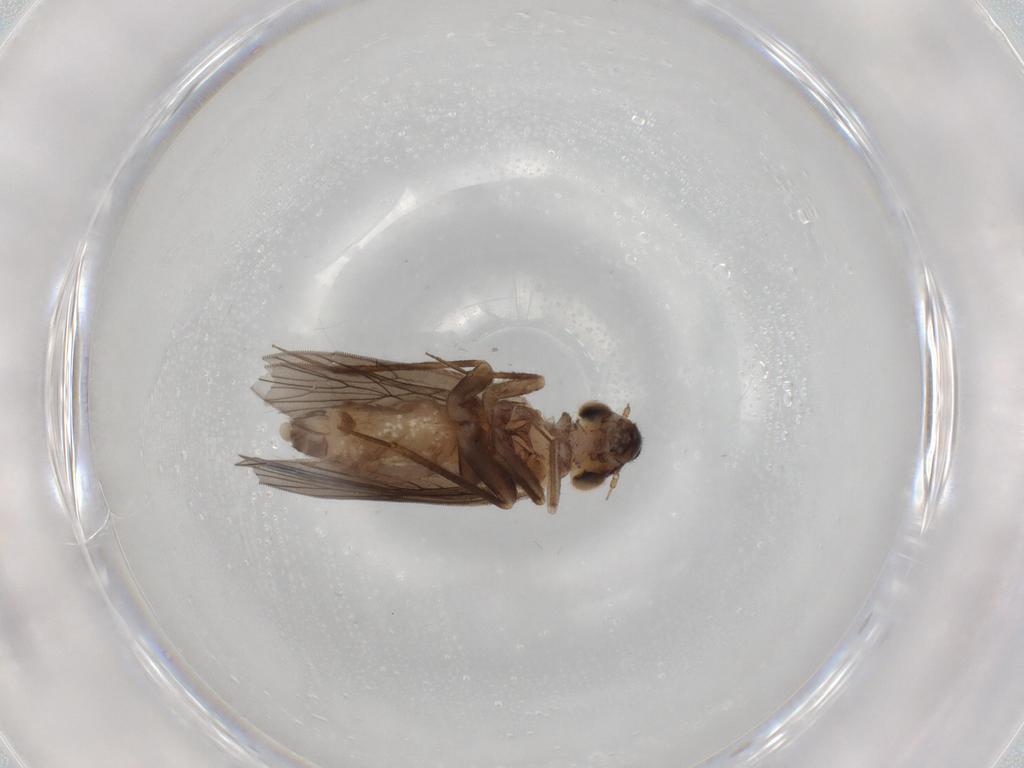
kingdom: Animalia
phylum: Arthropoda
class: Insecta
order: Psocodea
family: Lepidopsocidae
